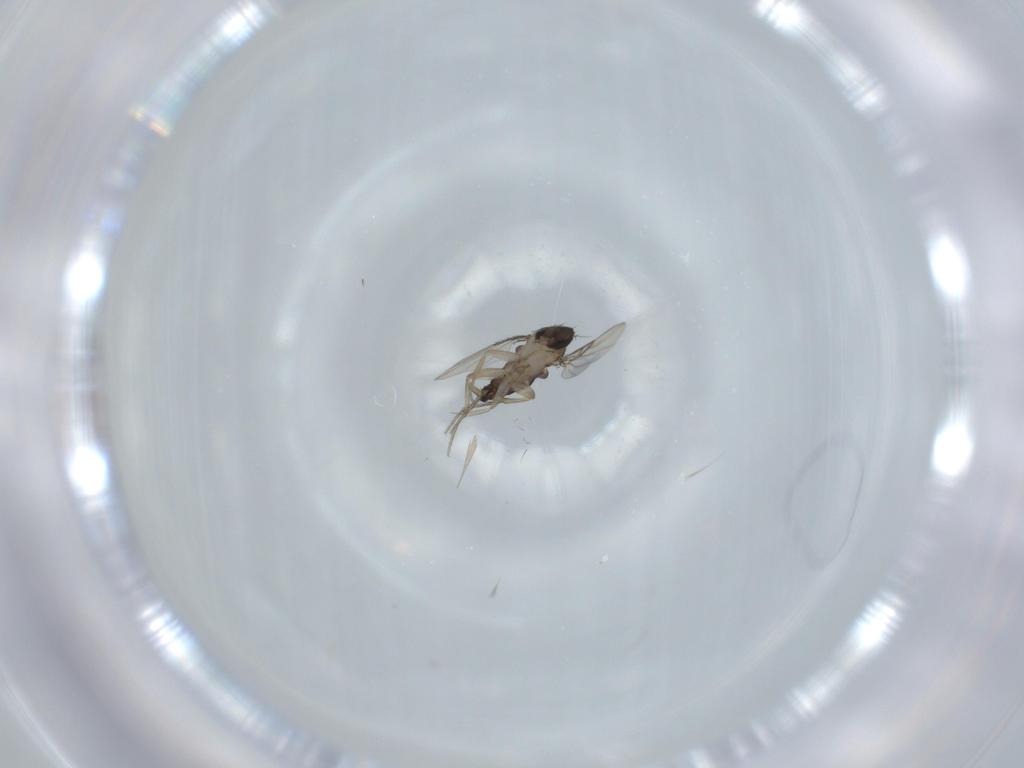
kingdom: Animalia
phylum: Arthropoda
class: Insecta
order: Diptera
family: Phoridae
